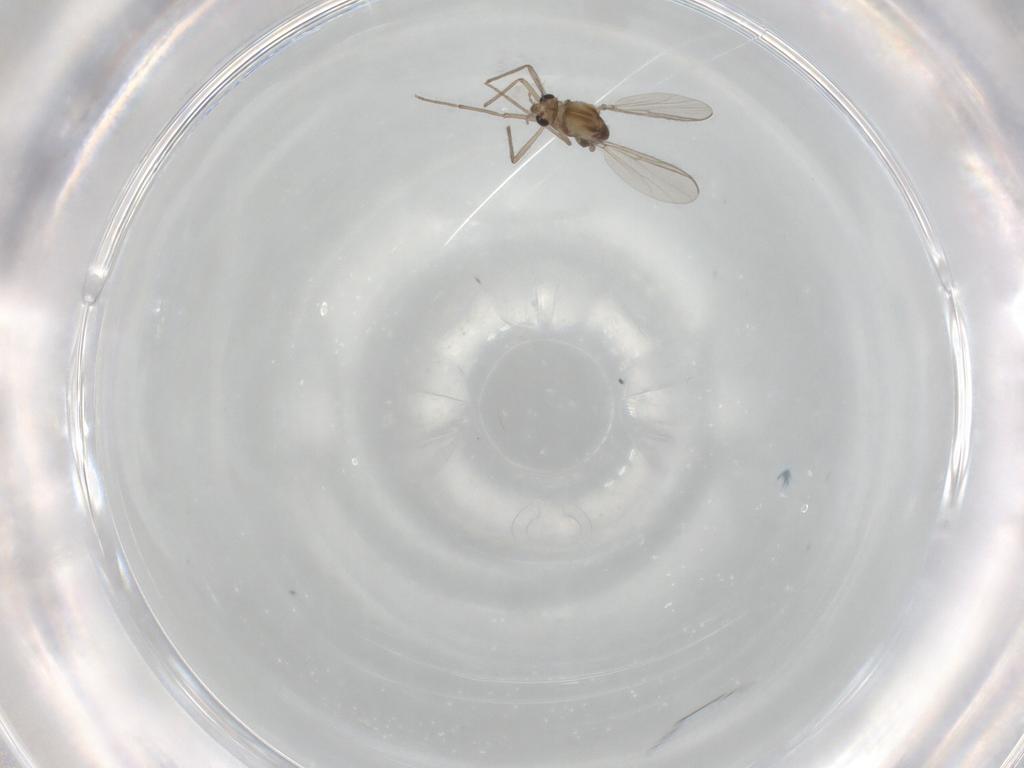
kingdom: Animalia
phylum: Arthropoda
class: Insecta
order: Diptera
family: Chironomidae
